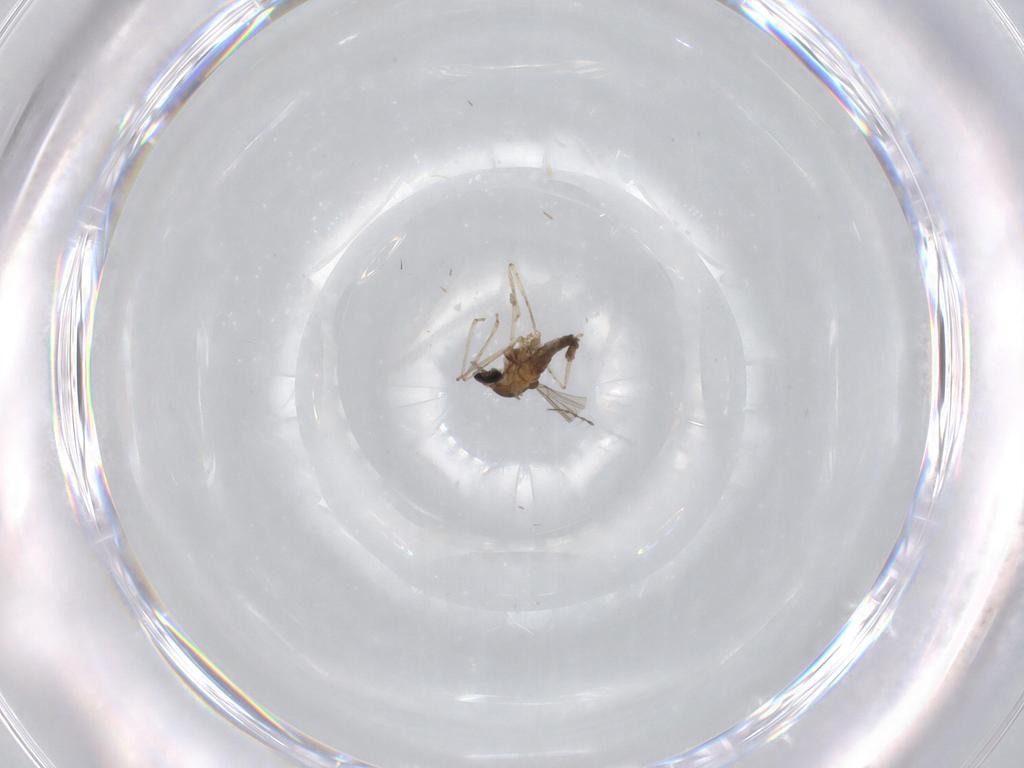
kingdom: Animalia
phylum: Arthropoda
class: Insecta
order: Diptera
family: Cecidomyiidae
